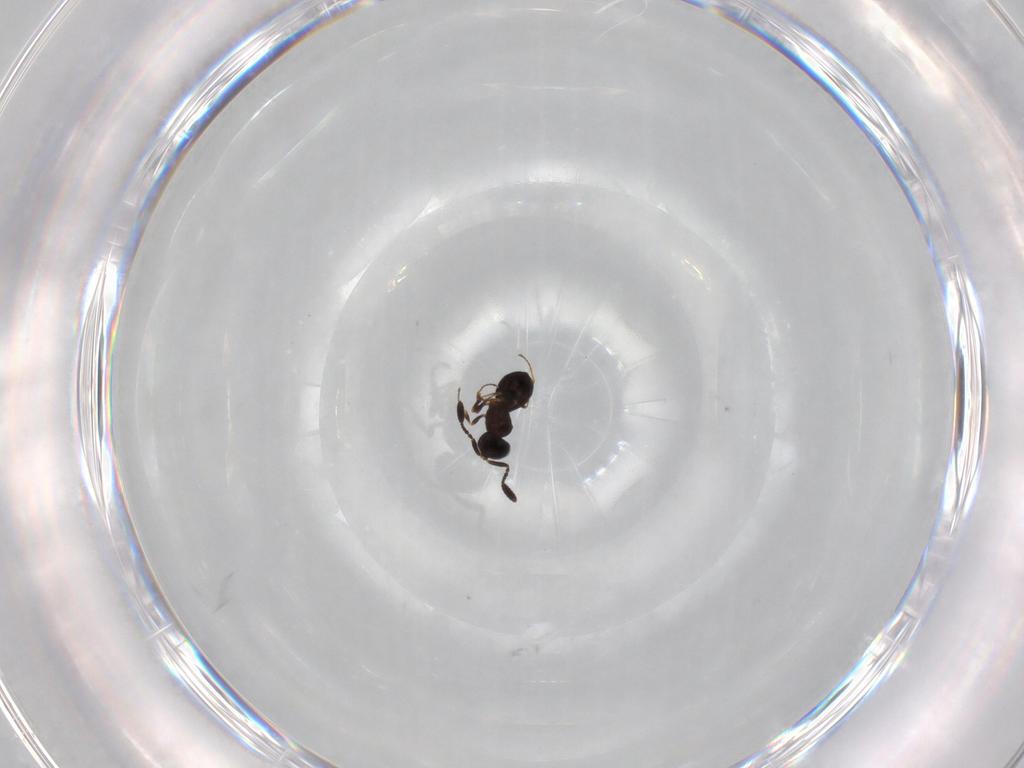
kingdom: Animalia
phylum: Arthropoda
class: Insecta
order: Hymenoptera
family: Scelionidae
